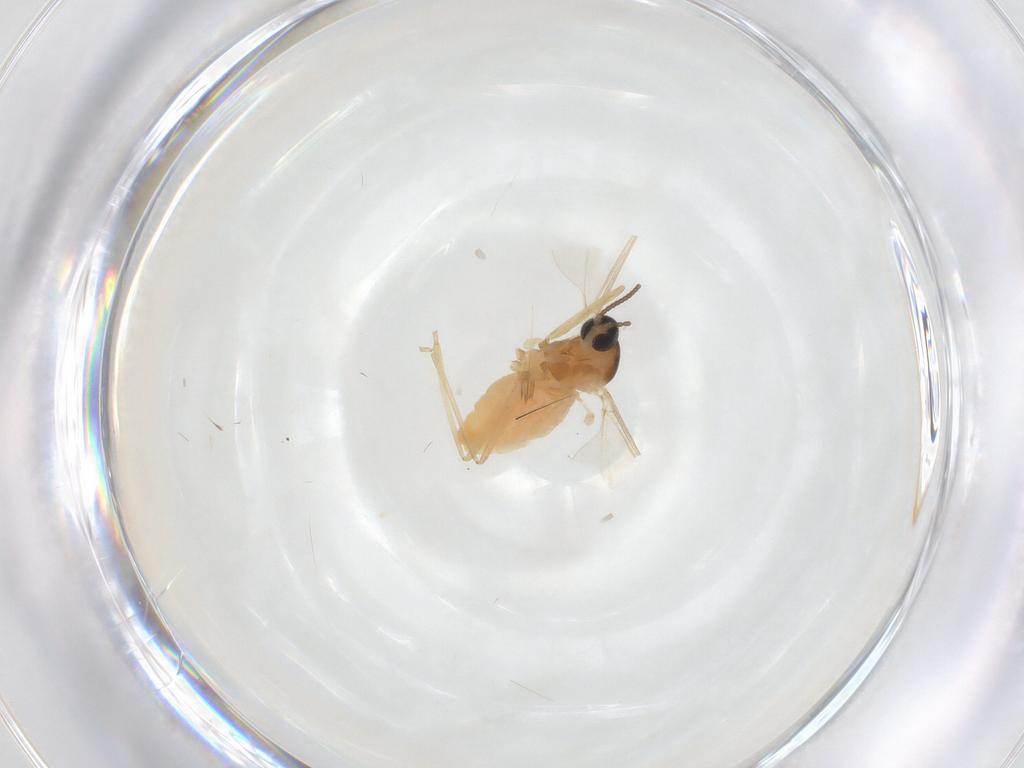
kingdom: Animalia
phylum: Arthropoda
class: Insecta
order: Diptera
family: Cecidomyiidae
